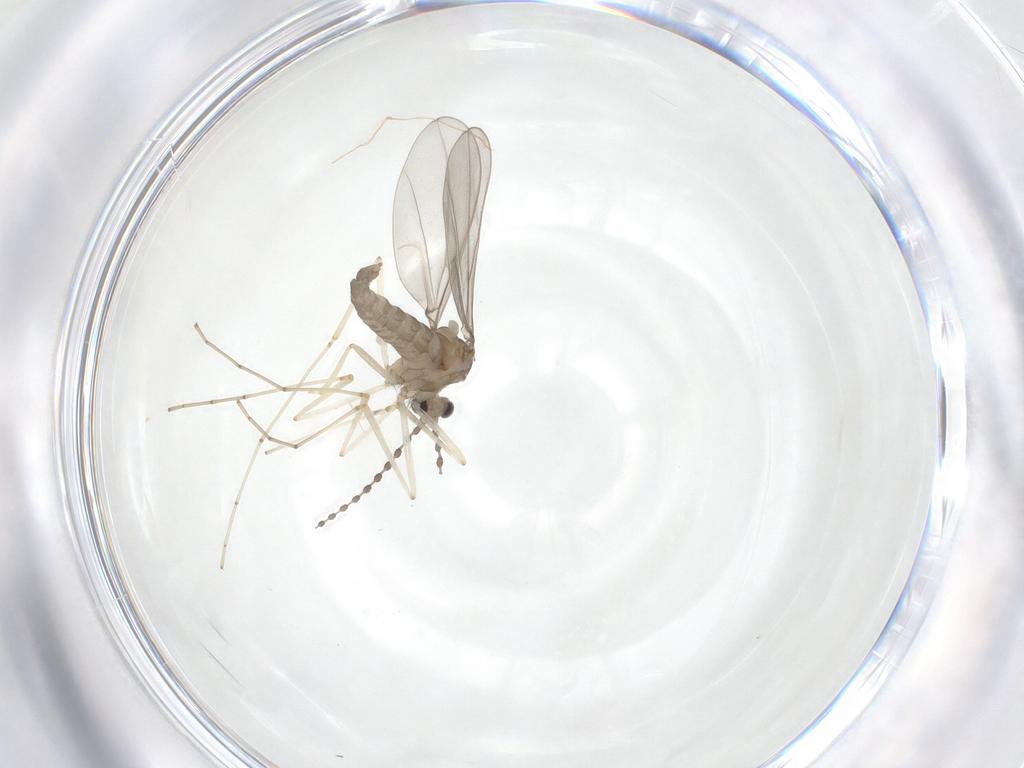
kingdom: Animalia
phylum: Arthropoda
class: Insecta
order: Diptera
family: Cecidomyiidae
